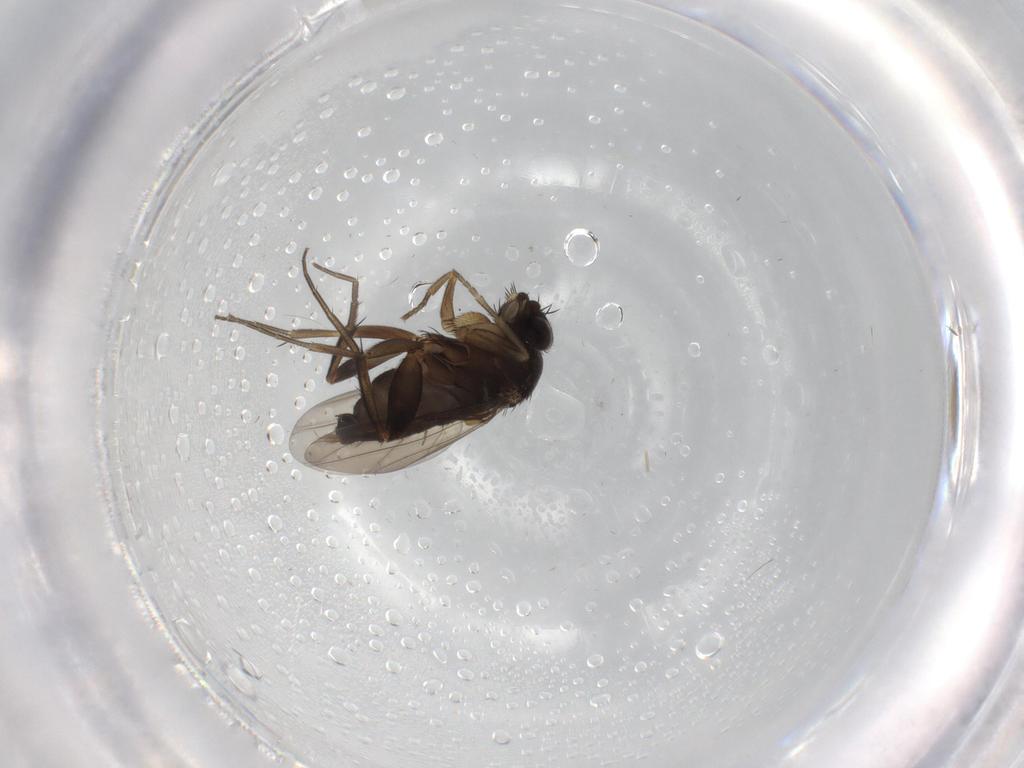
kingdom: Animalia
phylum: Arthropoda
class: Insecta
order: Diptera
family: Phoridae
